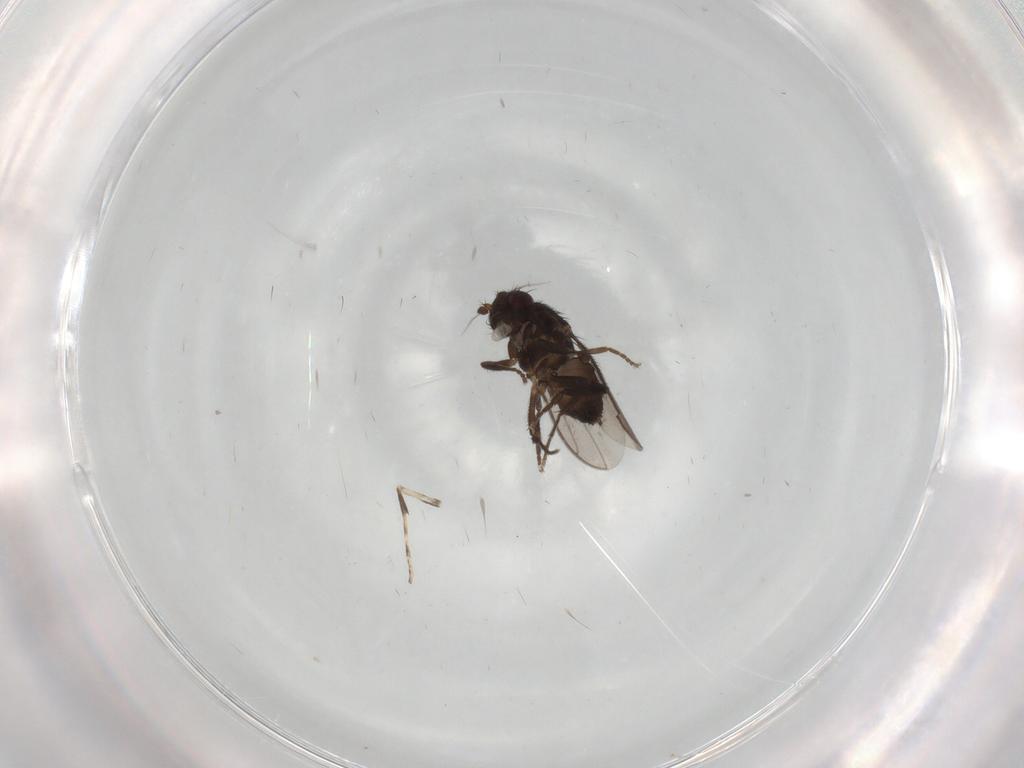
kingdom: Animalia
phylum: Arthropoda
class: Insecta
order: Diptera
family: Sphaeroceridae
